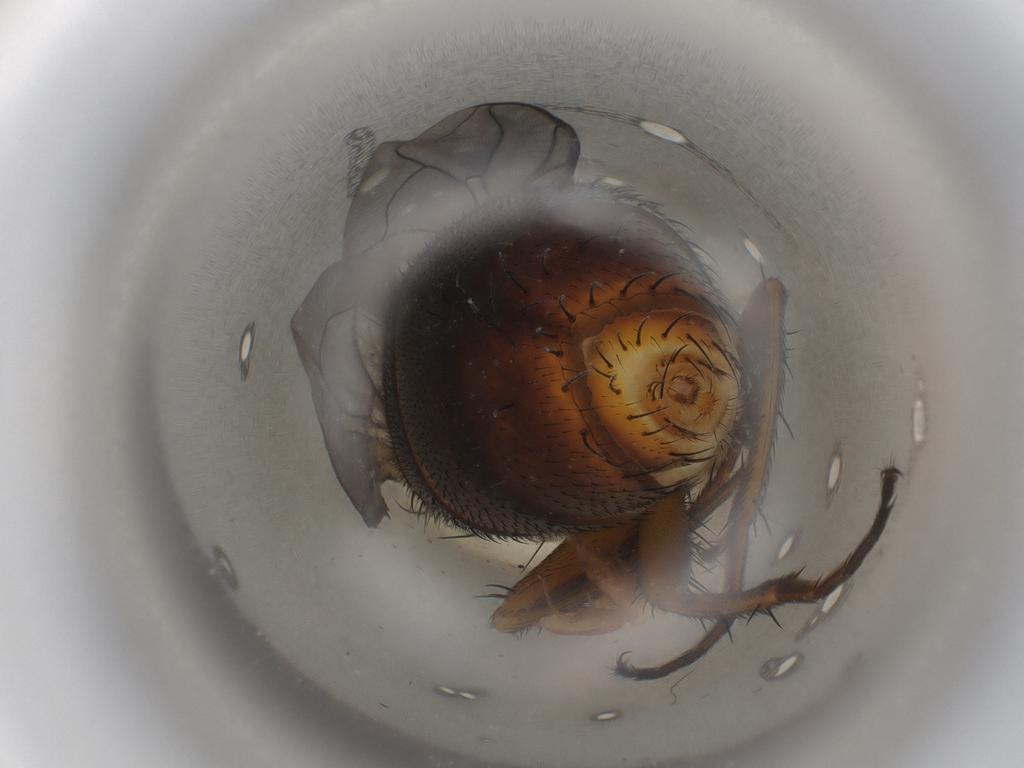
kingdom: Animalia
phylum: Arthropoda
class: Insecta
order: Diptera
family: Calliphoridae
